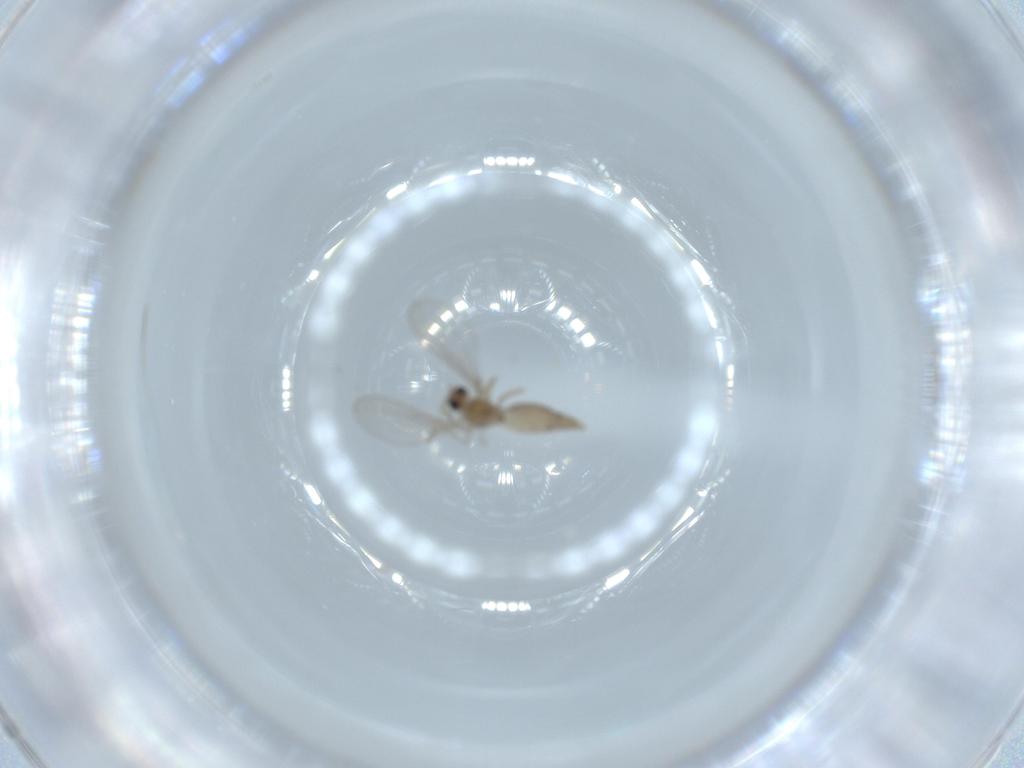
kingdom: Animalia
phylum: Arthropoda
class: Insecta
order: Diptera
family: Cecidomyiidae
